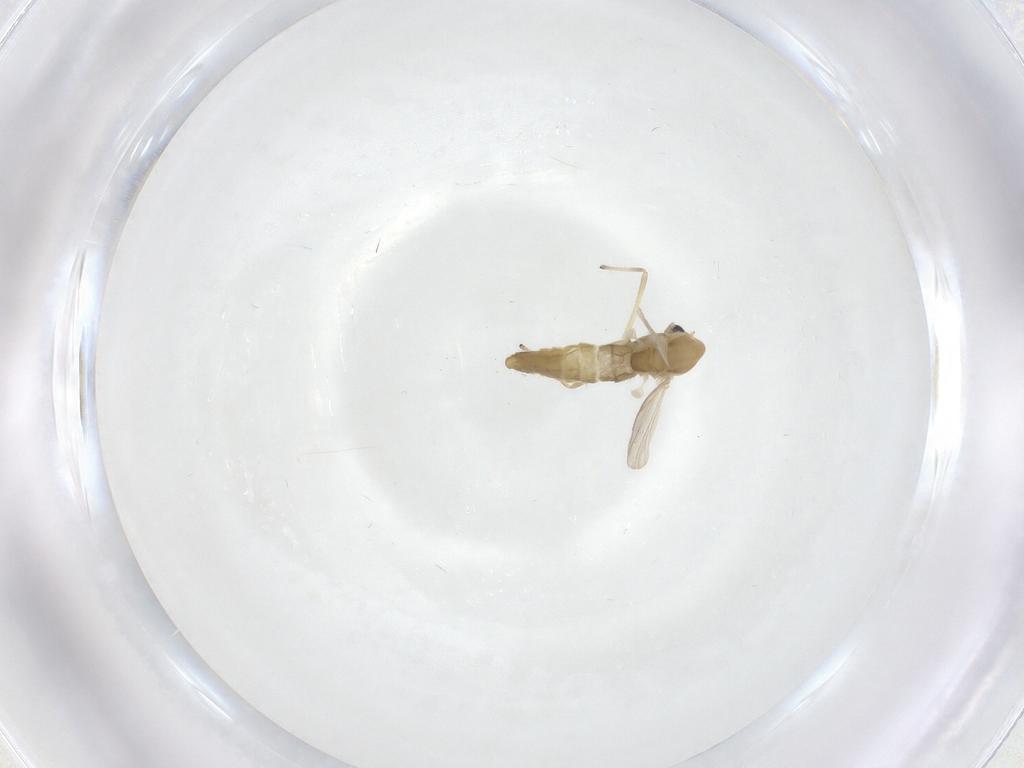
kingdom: Animalia
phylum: Arthropoda
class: Insecta
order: Diptera
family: Chironomidae
